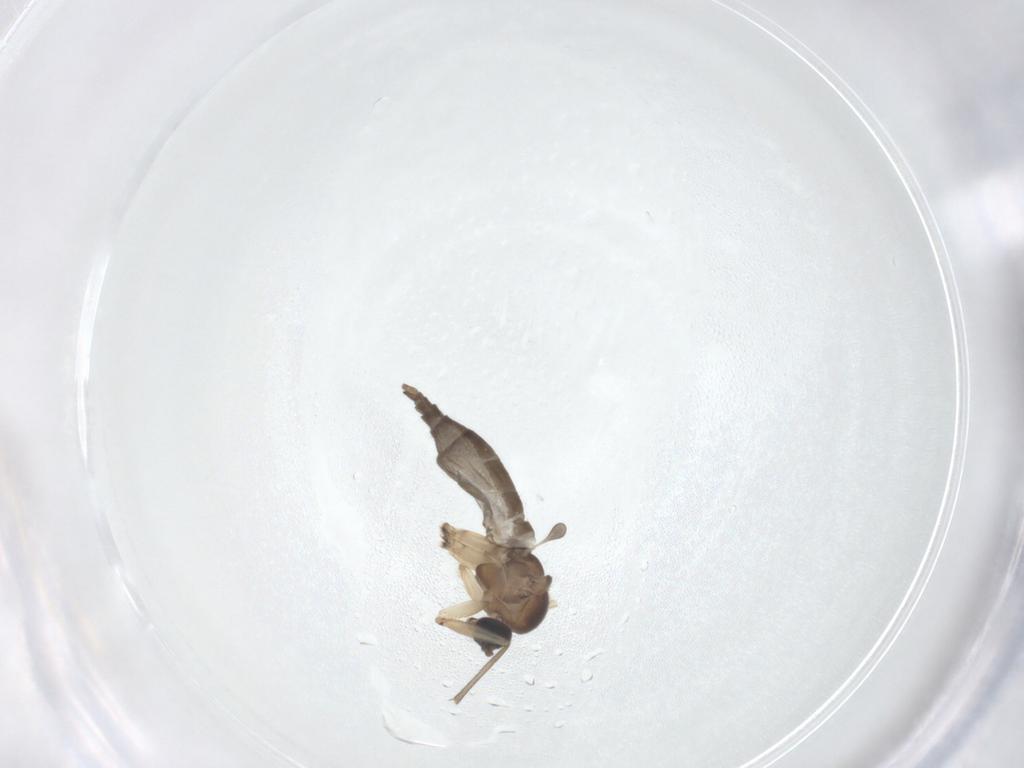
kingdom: Animalia
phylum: Arthropoda
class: Insecta
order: Diptera
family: Sciaridae
